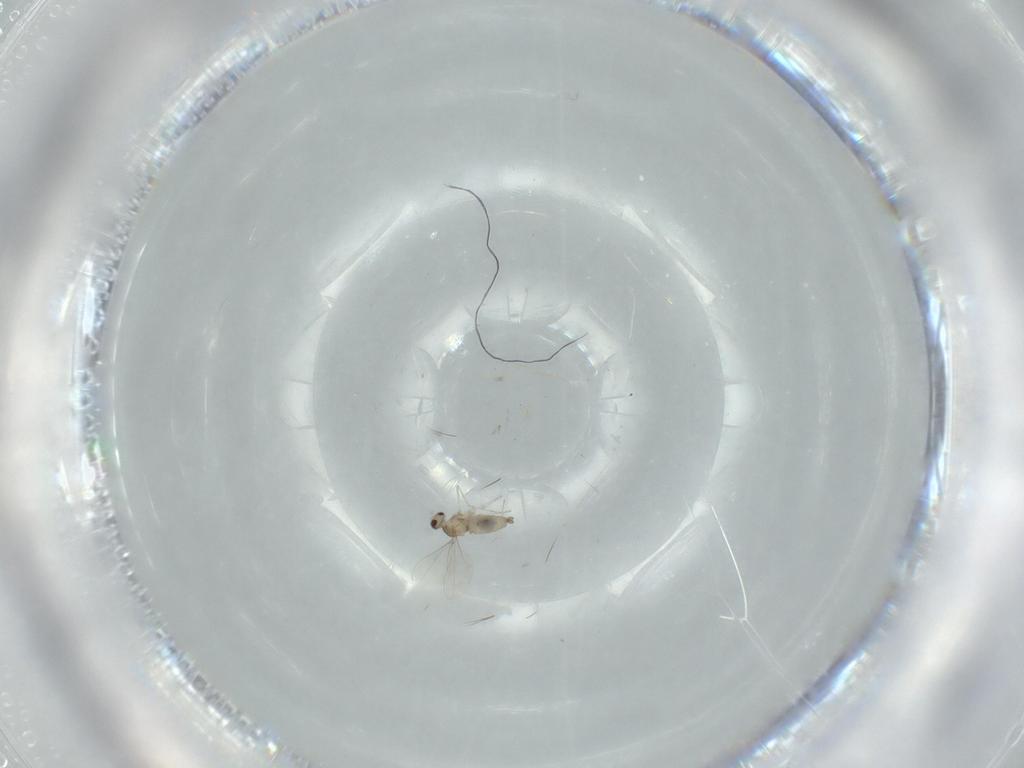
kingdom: Animalia
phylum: Arthropoda
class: Insecta
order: Diptera
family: Cecidomyiidae
